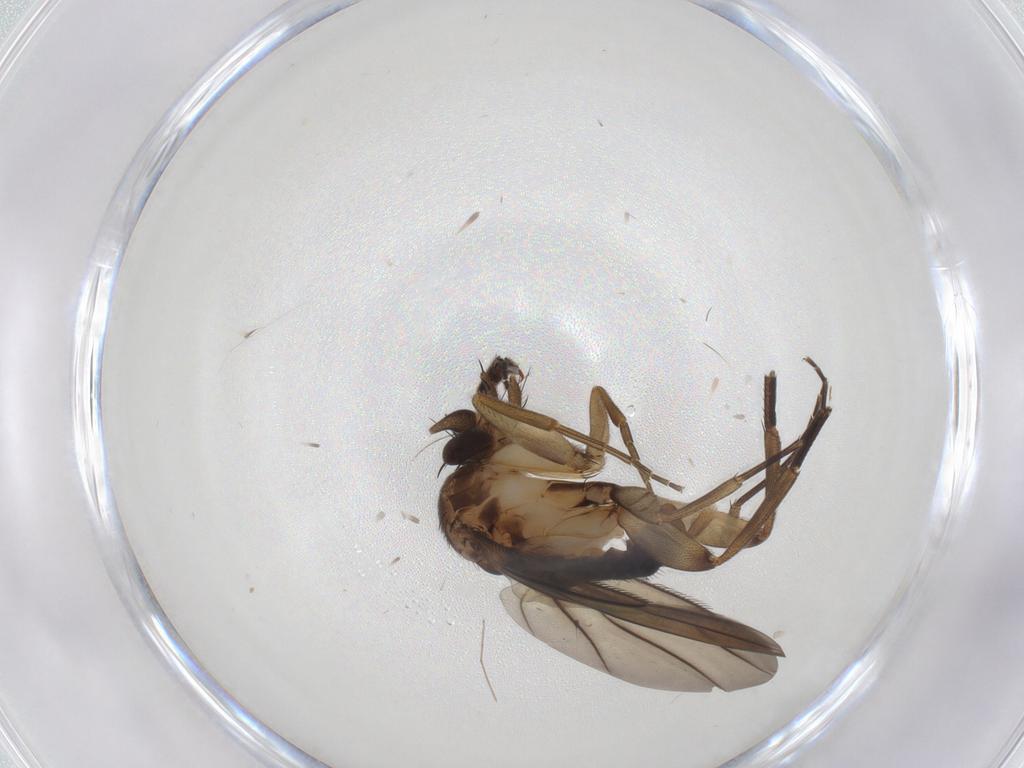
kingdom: Animalia
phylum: Arthropoda
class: Insecta
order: Diptera
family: Phoridae
